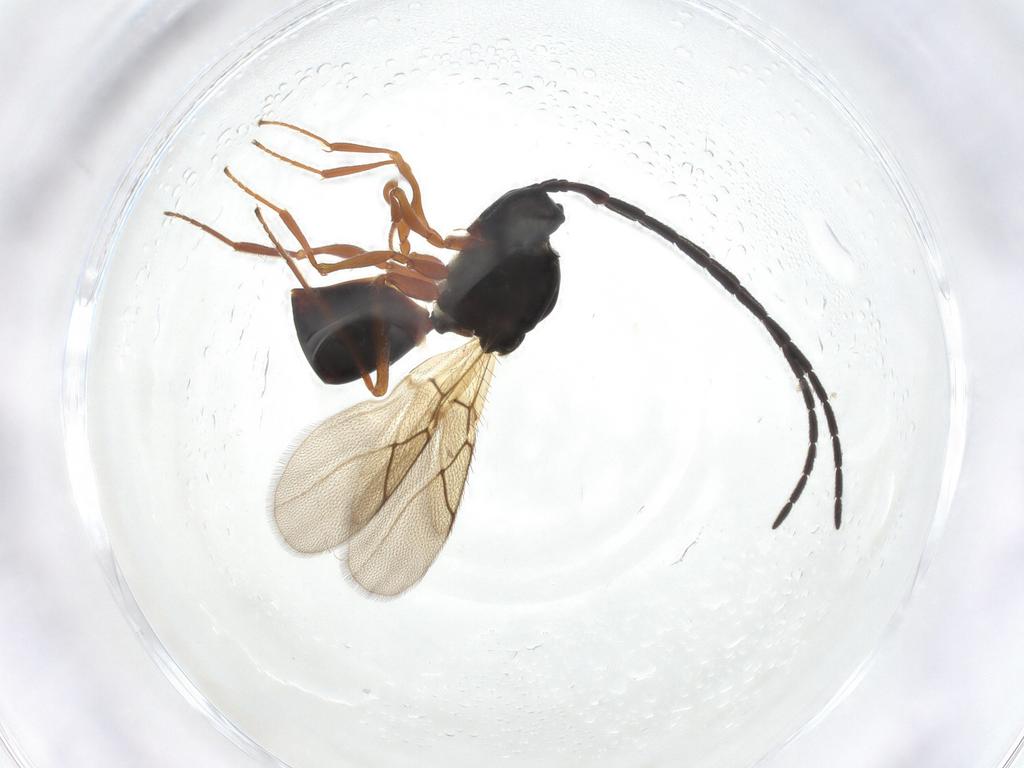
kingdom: Animalia
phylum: Arthropoda
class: Insecta
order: Hymenoptera
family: Figitidae
